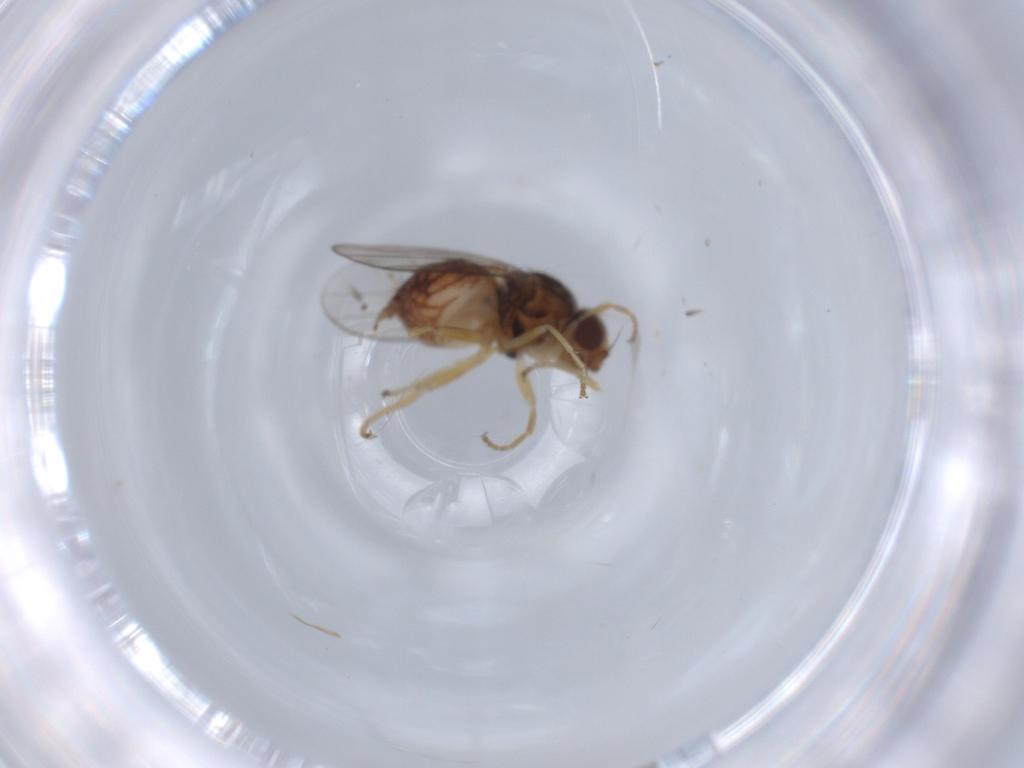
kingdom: Animalia
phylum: Arthropoda
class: Insecta
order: Diptera
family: Chloropidae
